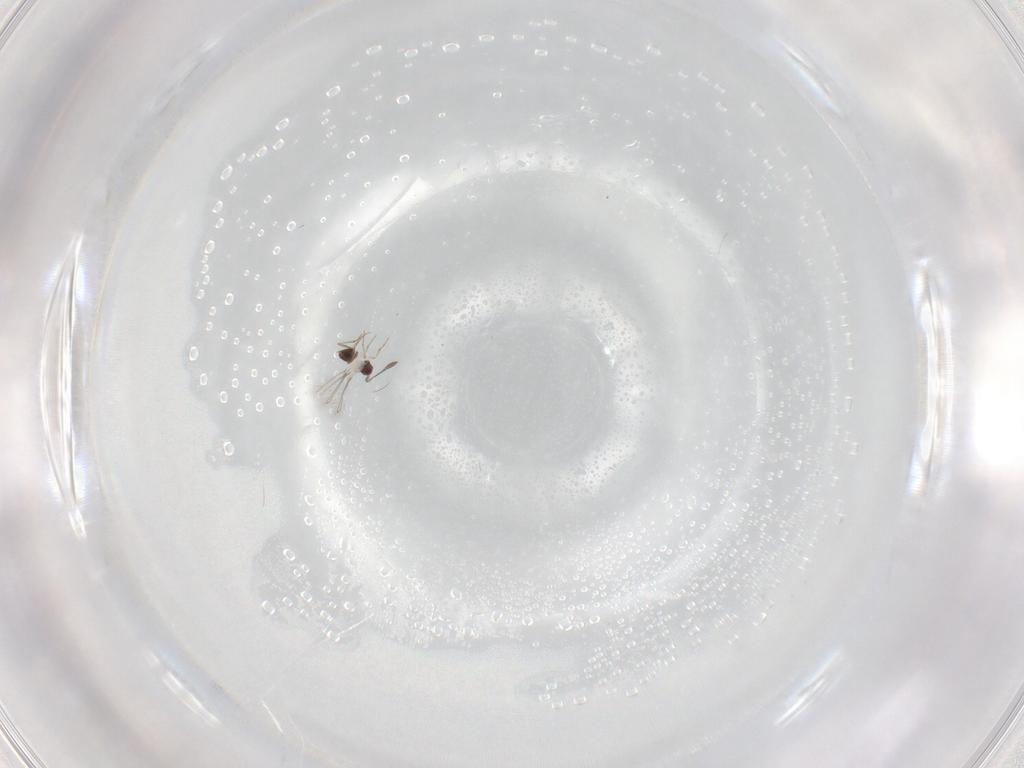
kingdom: Animalia
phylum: Arthropoda
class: Insecta
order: Hymenoptera
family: Mymaridae
